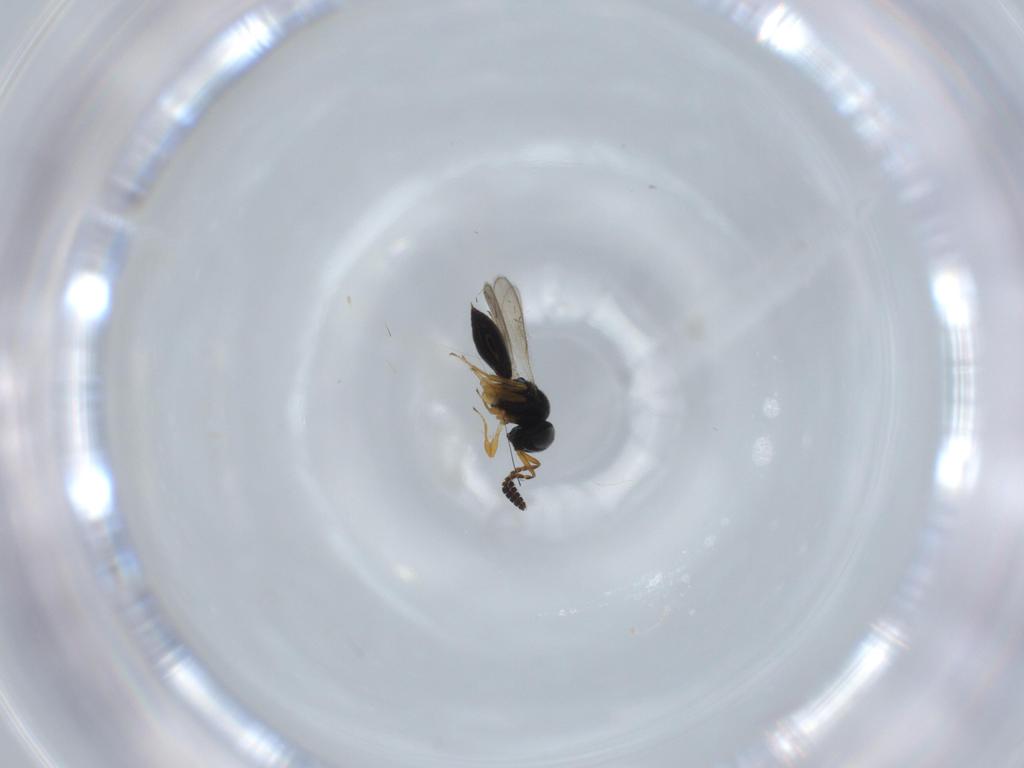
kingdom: Animalia
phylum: Arthropoda
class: Insecta
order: Hymenoptera
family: Scelionidae
